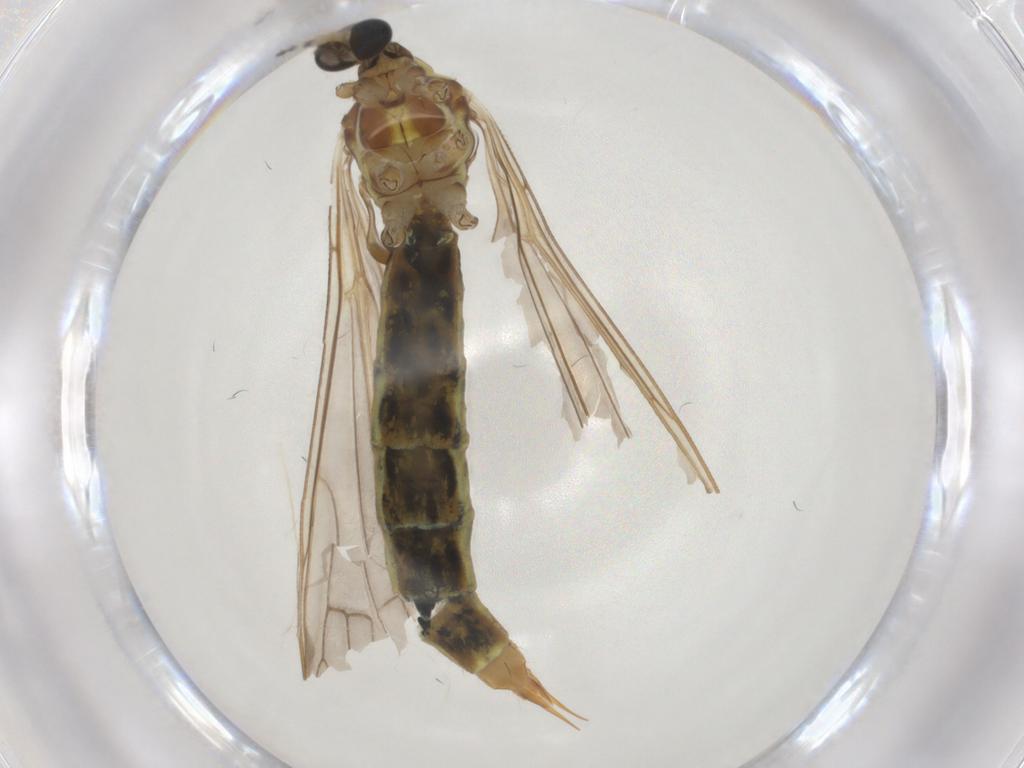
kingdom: Animalia
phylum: Arthropoda
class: Insecta
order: Diptera
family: Limoniidae
